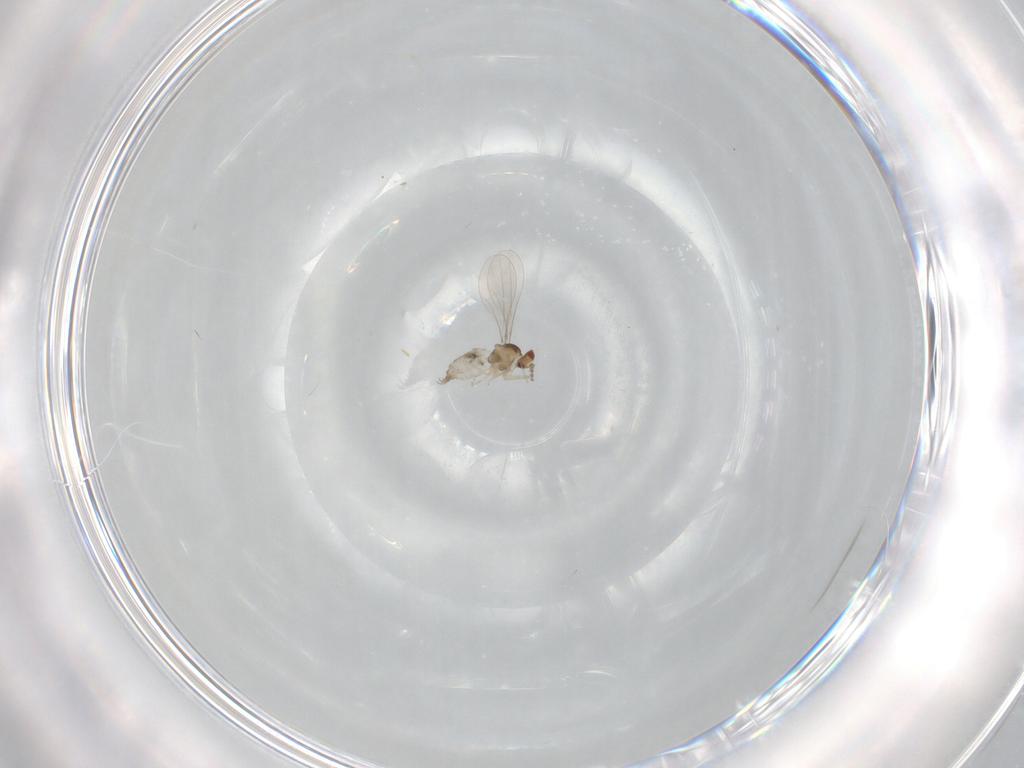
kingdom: Animalia
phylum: Arthropoda
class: Insecta
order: Diptera
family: Cecidomyiidae
